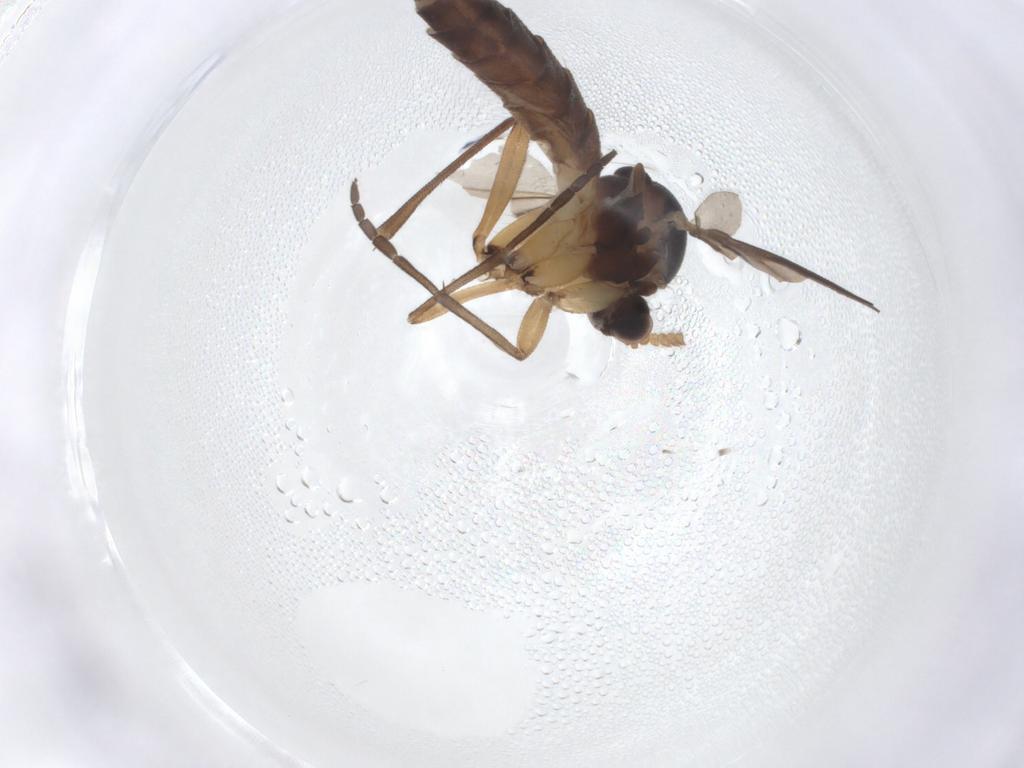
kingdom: Animalia
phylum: Arthropoda
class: Insecta
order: Diptera
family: Mycetophilidae
